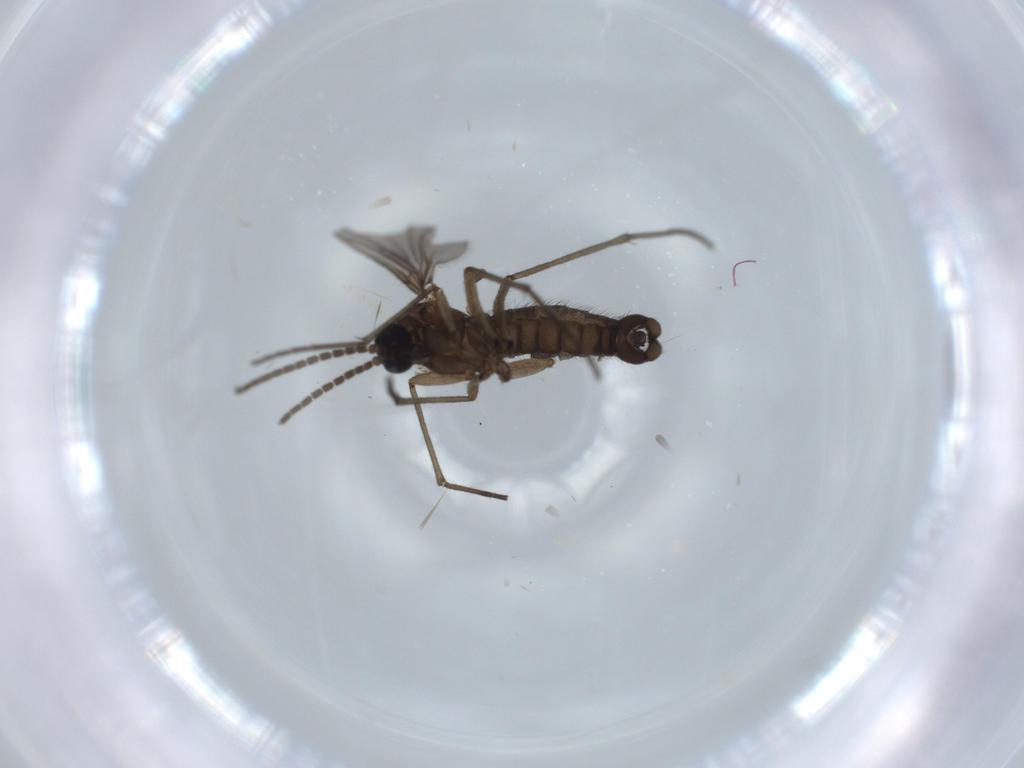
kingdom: Animalia
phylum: Arthropoda
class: Insecta
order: Diptera
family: Sciaridae
